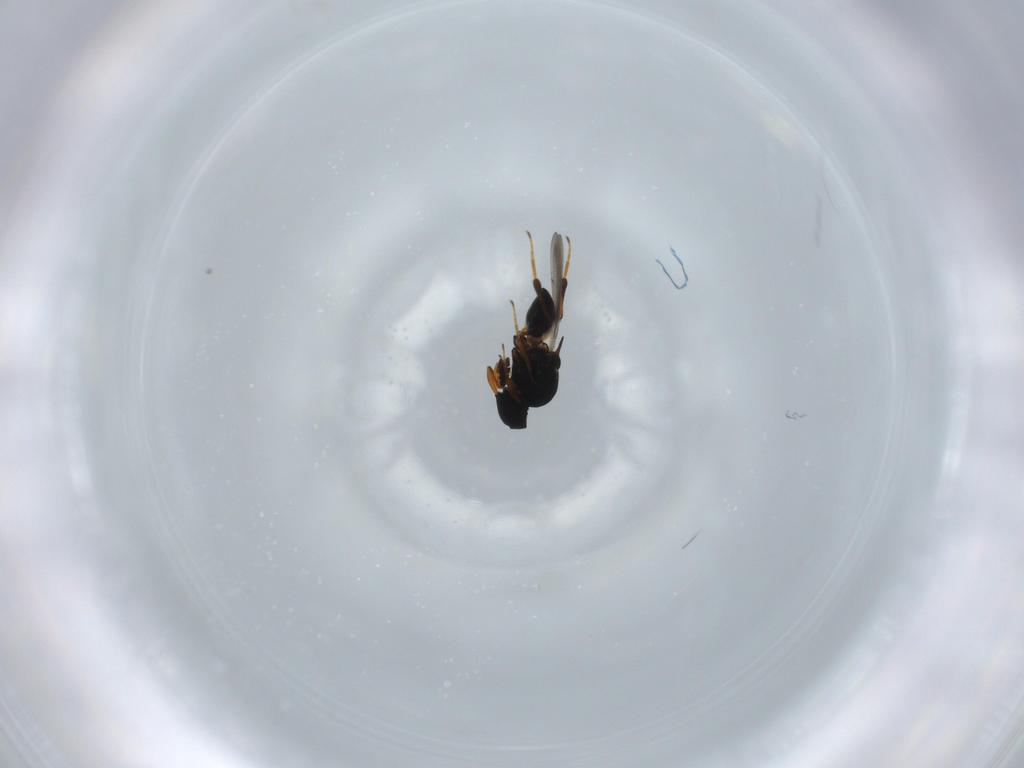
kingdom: Animalia
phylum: Arthropoda
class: Insecta
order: Hymenoptera
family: Platygastridae
